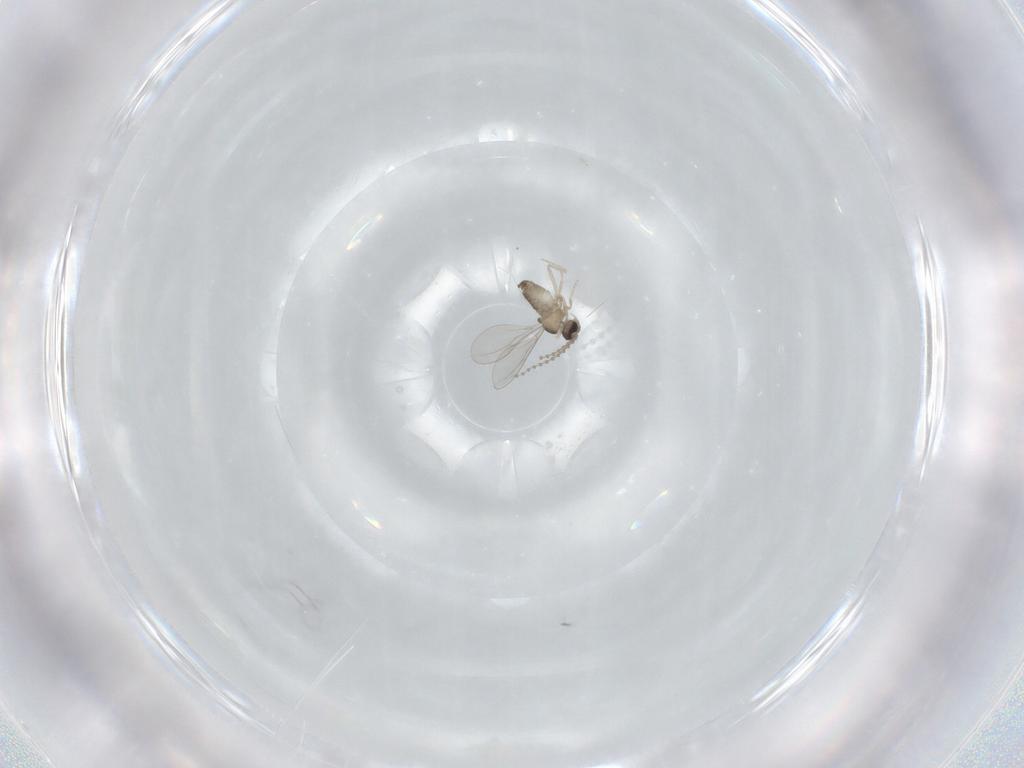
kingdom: Animalia
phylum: Arthropoda
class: Insecta
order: Diptera
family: Cecidomyiidae
